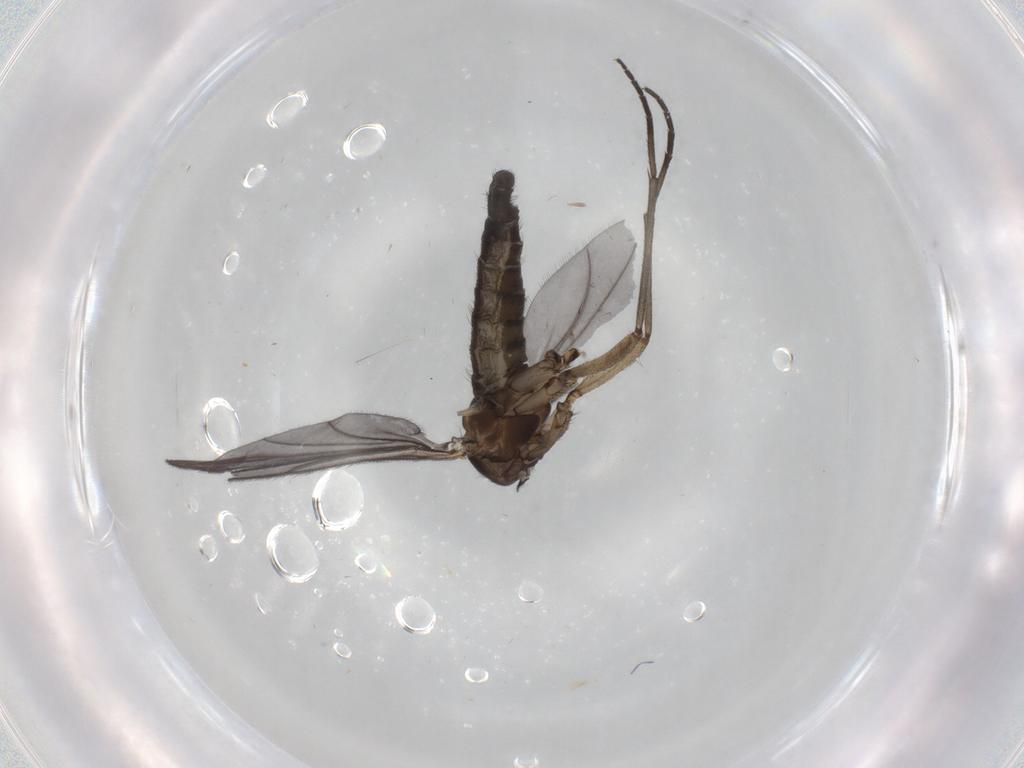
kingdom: Animalia
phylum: Arthropoda
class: Insecta
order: Diptera
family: Sciaridae
